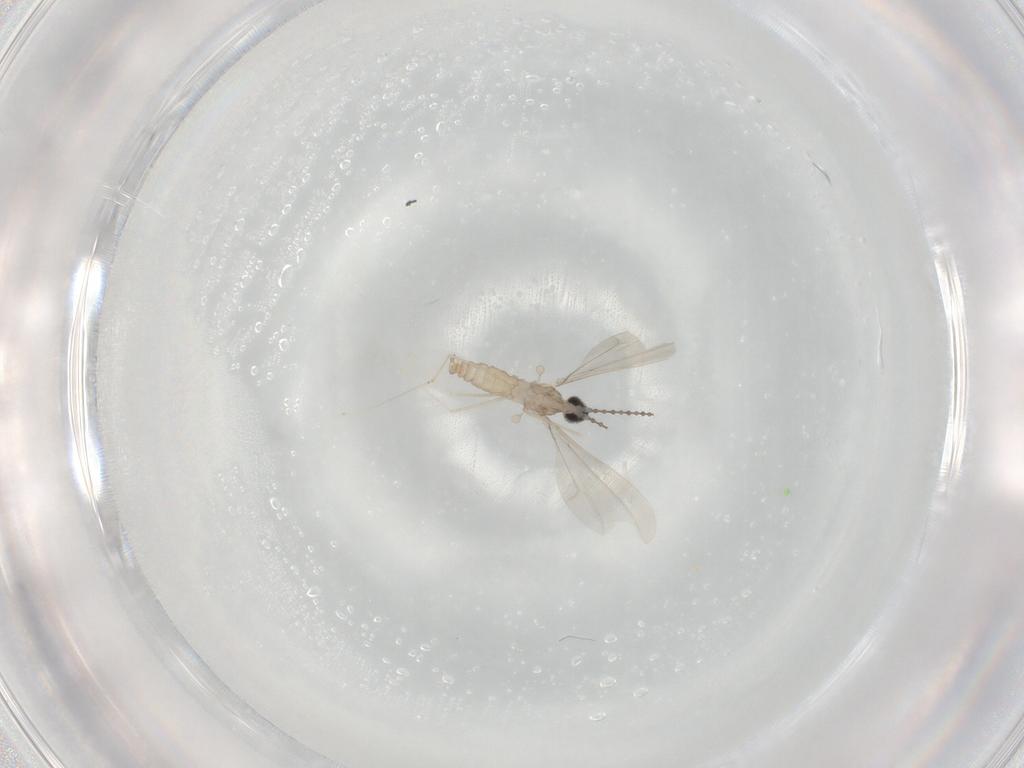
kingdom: Animalia
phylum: Arthropoda
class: Insecta
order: Diptera
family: Cecidomyiidae
